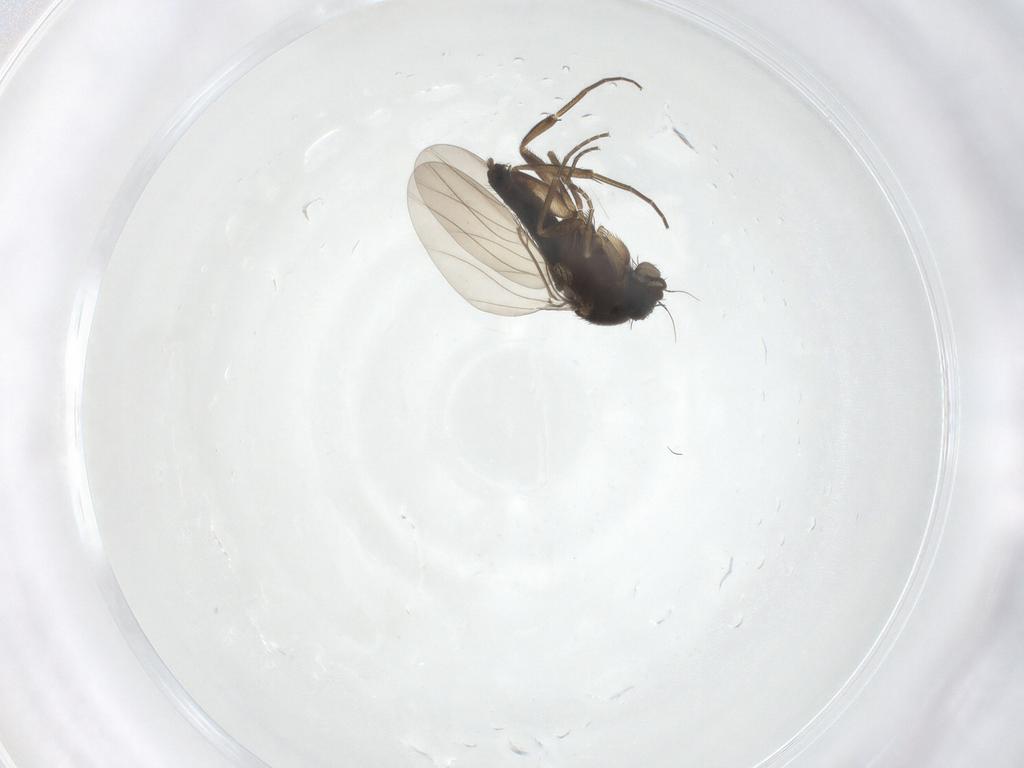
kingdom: Animalia
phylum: Arthropoda
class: Insecta
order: Diptera
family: Phoridae
